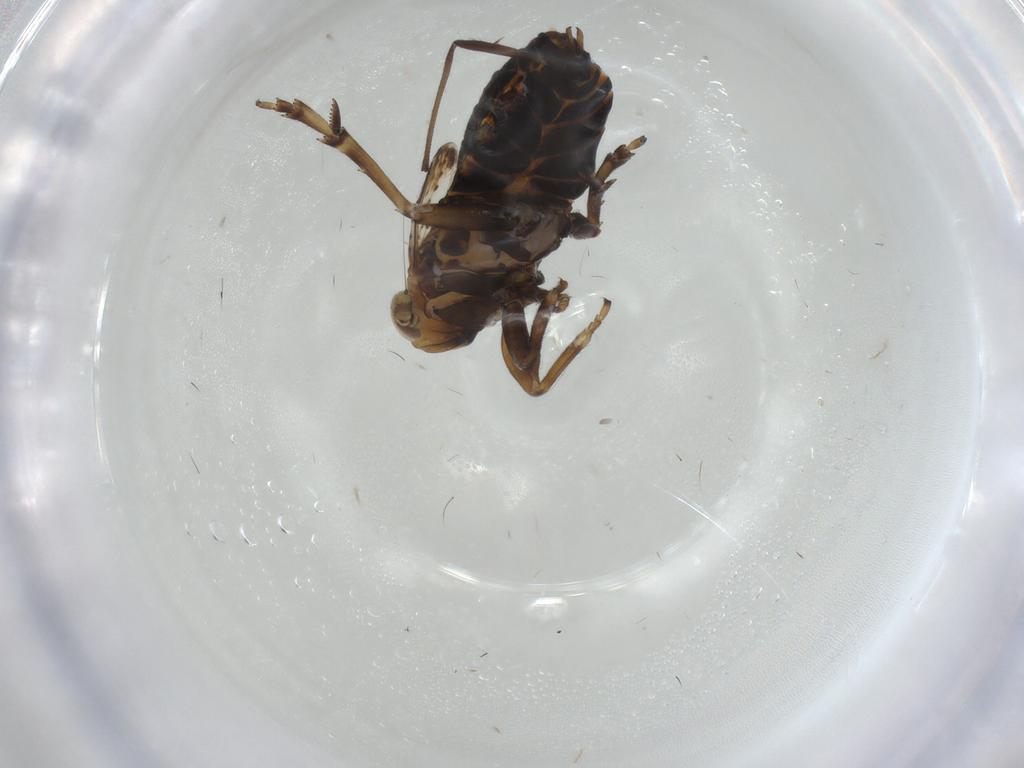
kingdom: Animalia
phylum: Arthropoda
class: Insecta
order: Hemiptera
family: Delphacidae
